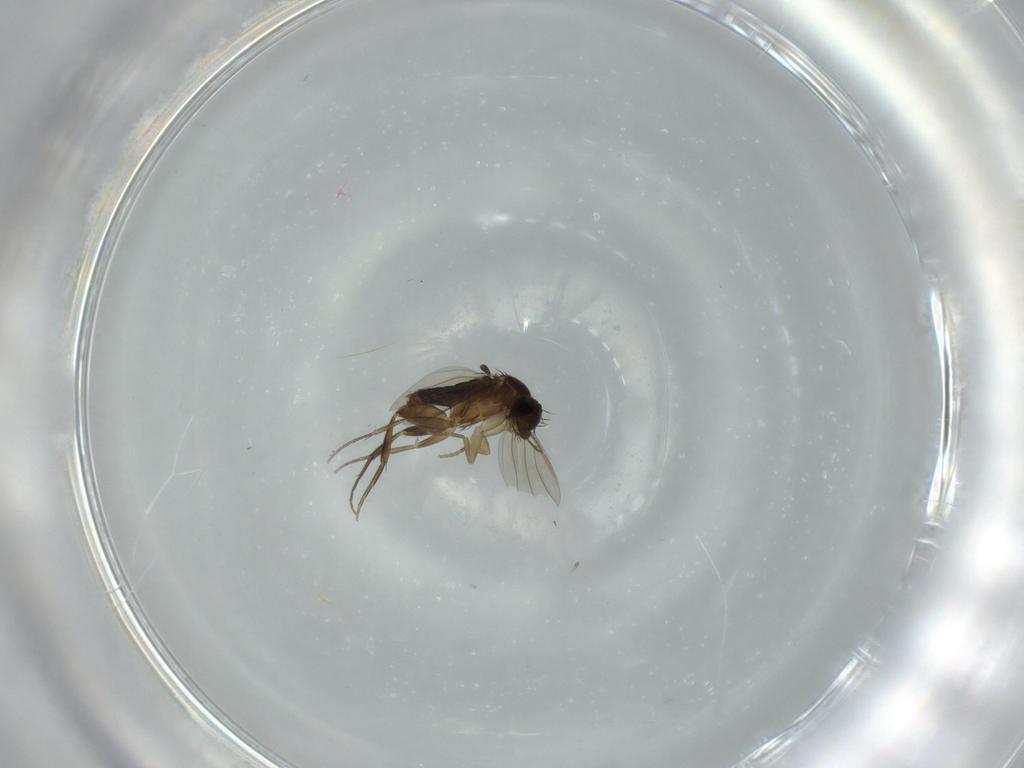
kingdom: Animalia
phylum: Arthropoda
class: Insecta
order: Diptera
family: Phoridae
